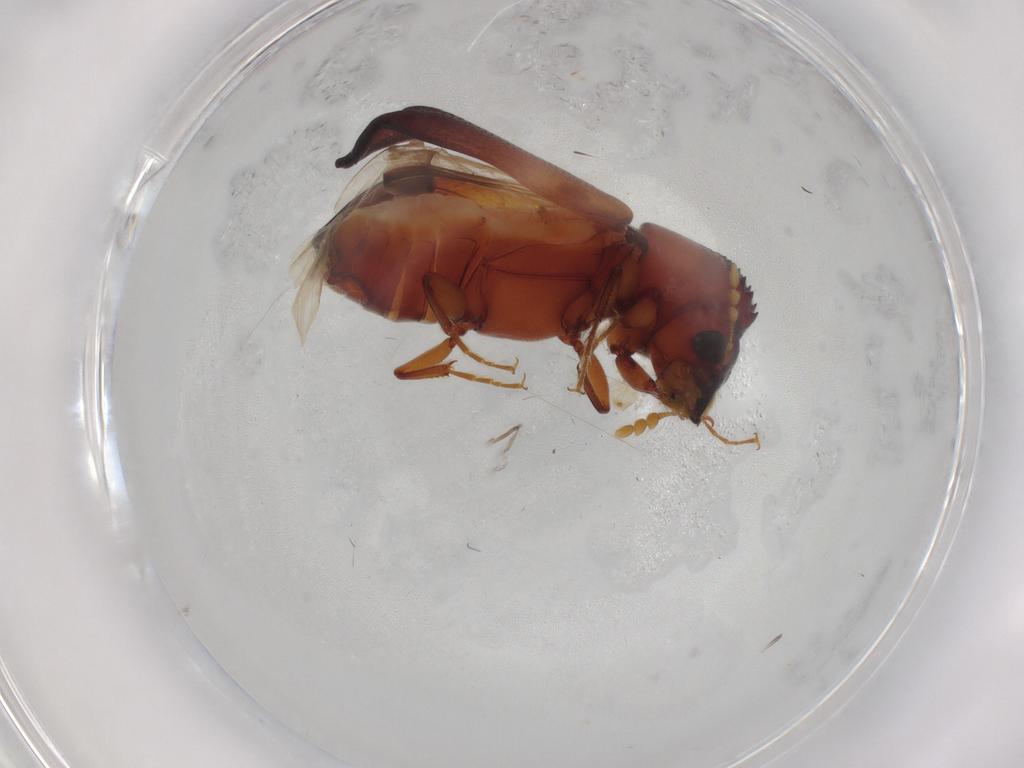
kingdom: Animalia
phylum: Arthropoda
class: Insecta
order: Coleoptera
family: Bostrichidae
